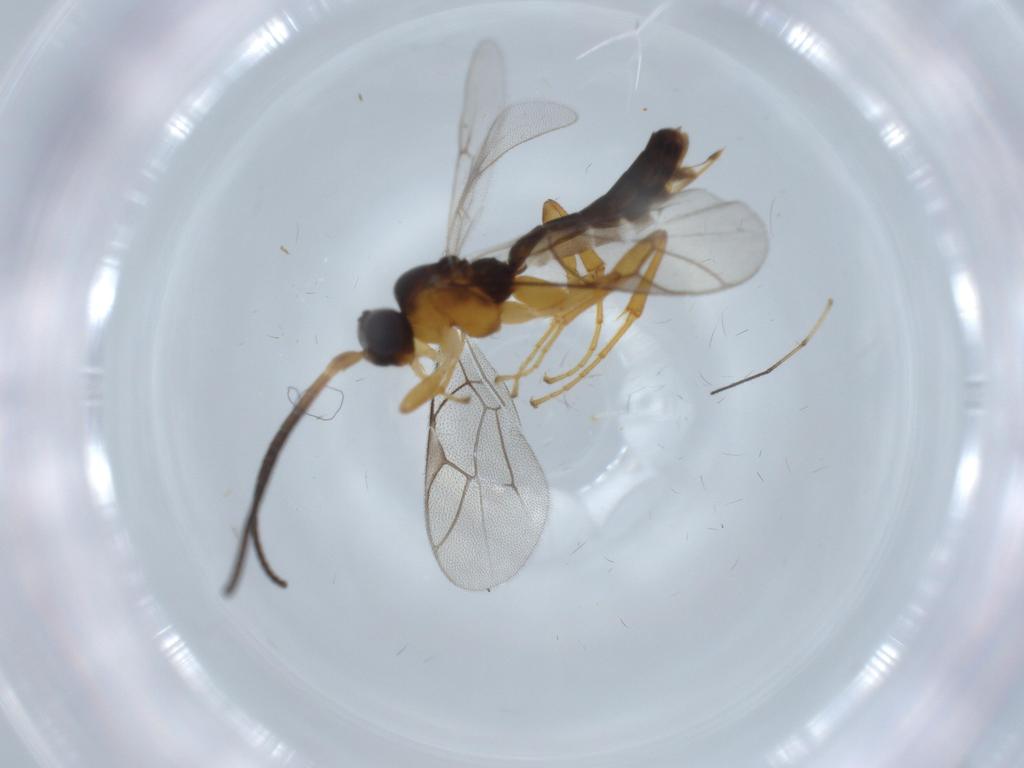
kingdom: Animalia
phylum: Arthropoda
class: Insecta
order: Hymenoptera
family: Ichneumonidae
